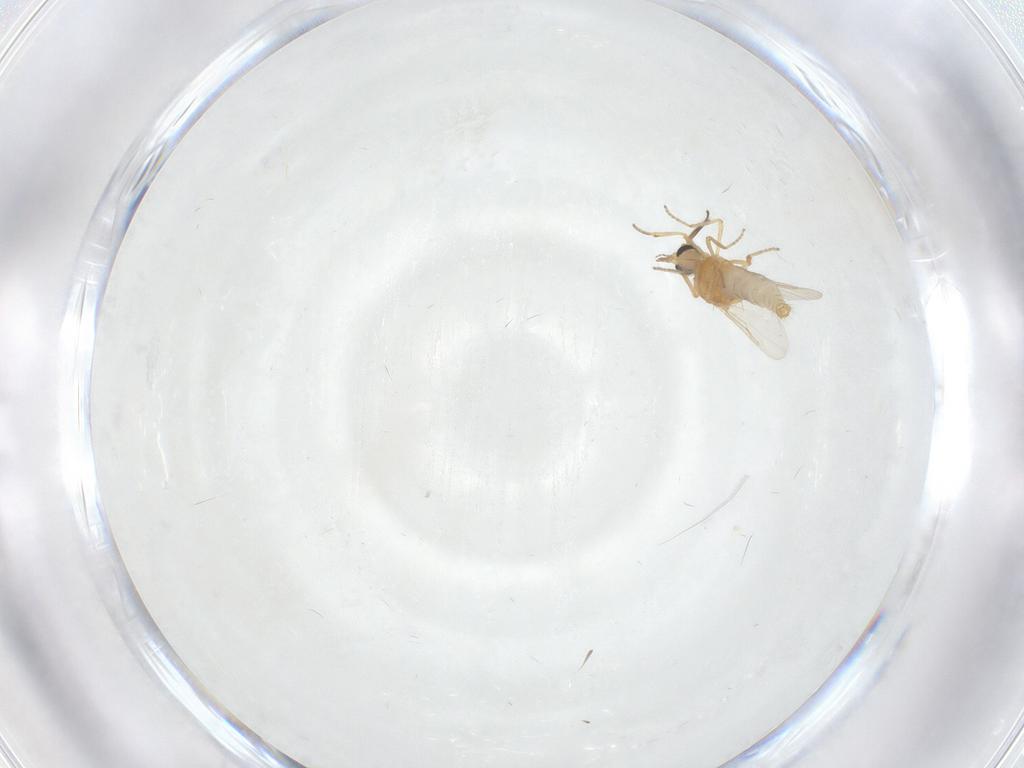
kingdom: Animalia
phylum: Arthropoda
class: Insecta
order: Diptera
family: Ceratopogonidae
